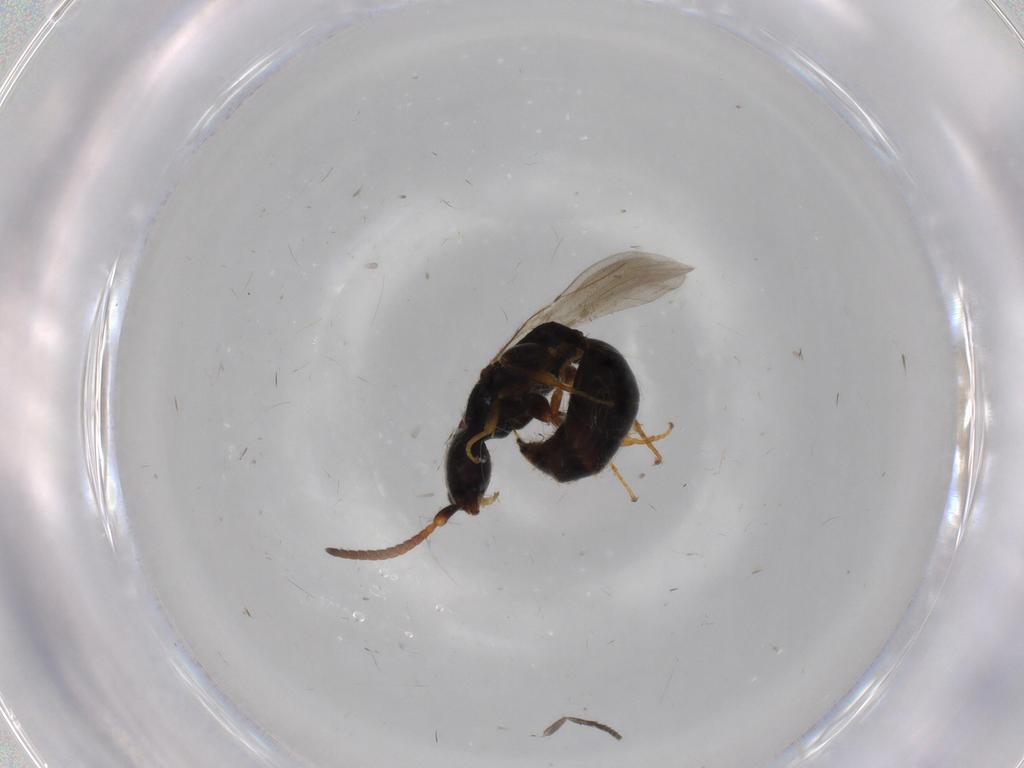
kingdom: Animalia
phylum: Arthropoda
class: Insecta
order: Hymenoptera
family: Bethylidae
